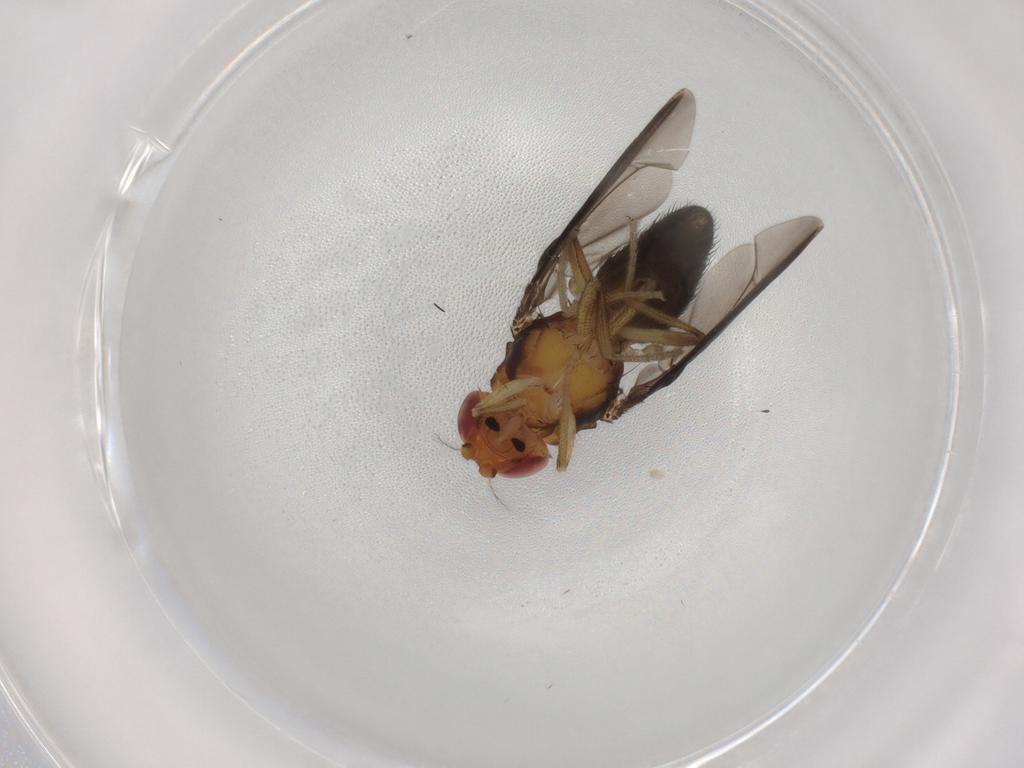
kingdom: Animalia
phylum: Arthropoda
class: Insecta
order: Diptera
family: Drosophilidae
